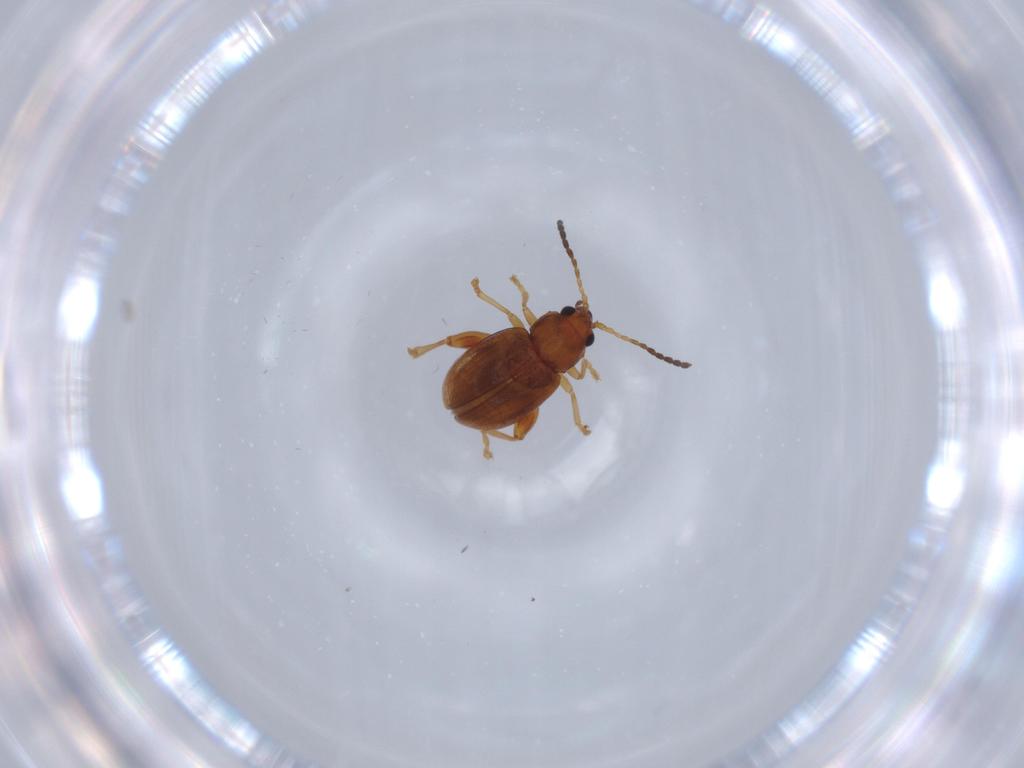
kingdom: Animalia
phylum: Arthropoda
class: Insecta
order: Coleoptera
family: Chrysomelidae
